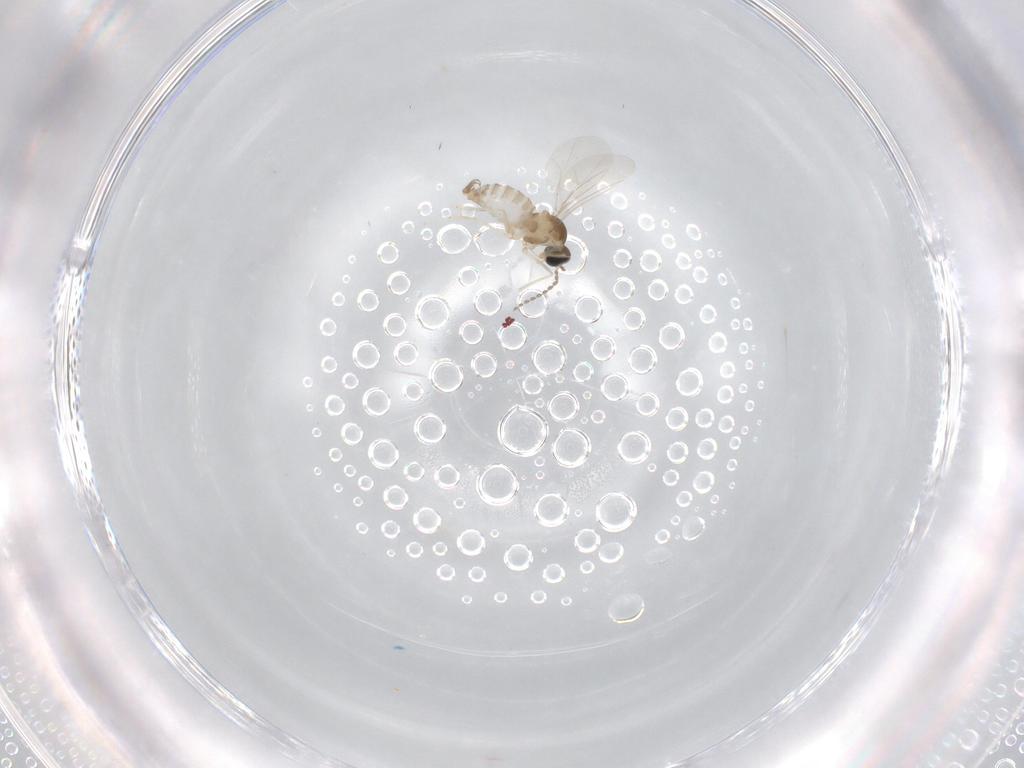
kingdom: Animalia
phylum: Arthropoda
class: Insecta
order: Diptera
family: Cecidomyiidae
